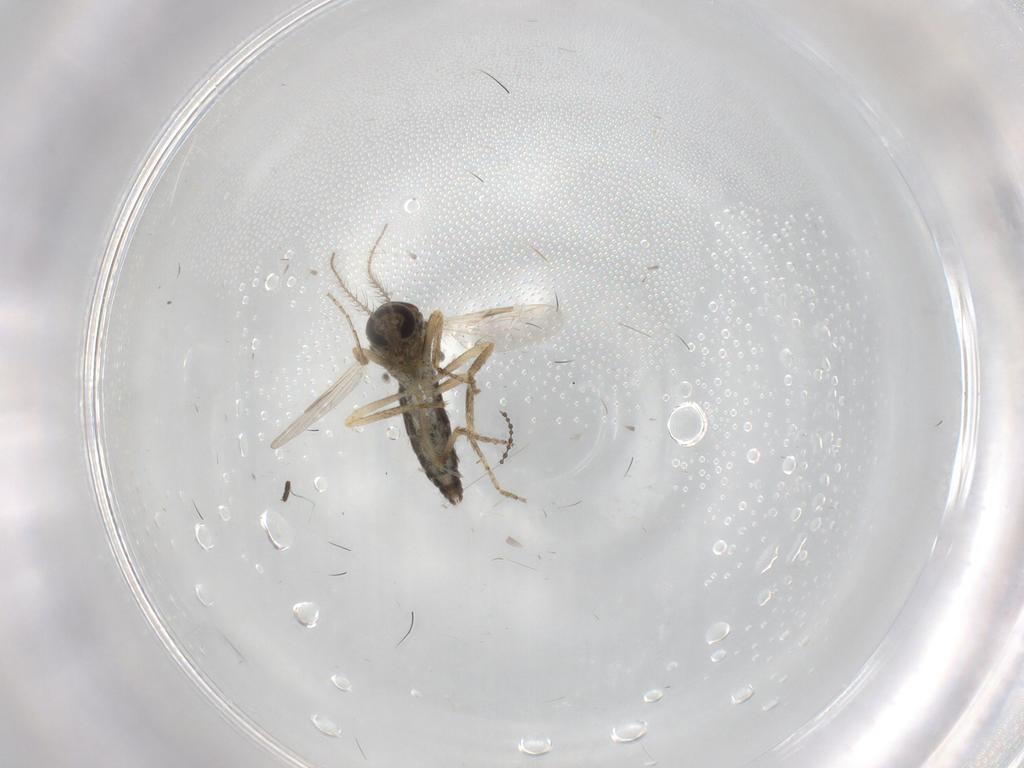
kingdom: Animalia
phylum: Arthropoda
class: Insecta
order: Diptera
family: Ceratopogonidae
